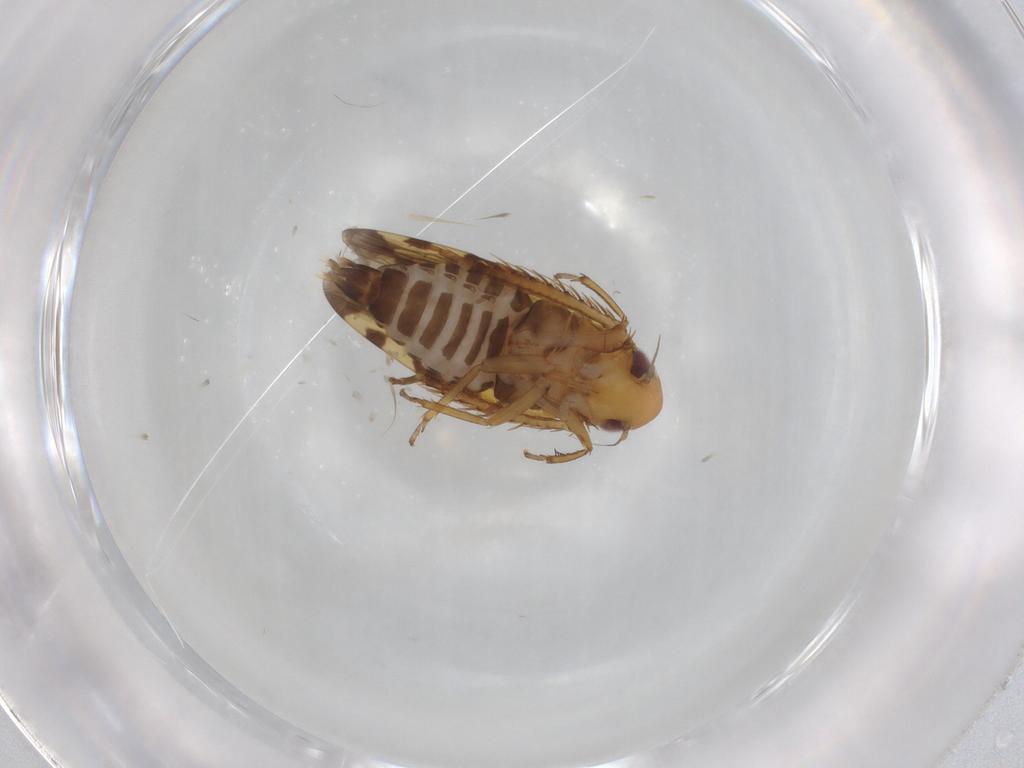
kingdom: Animalia
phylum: Arthropoda
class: Insecta
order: Hemiptera
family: Cicadellidae
